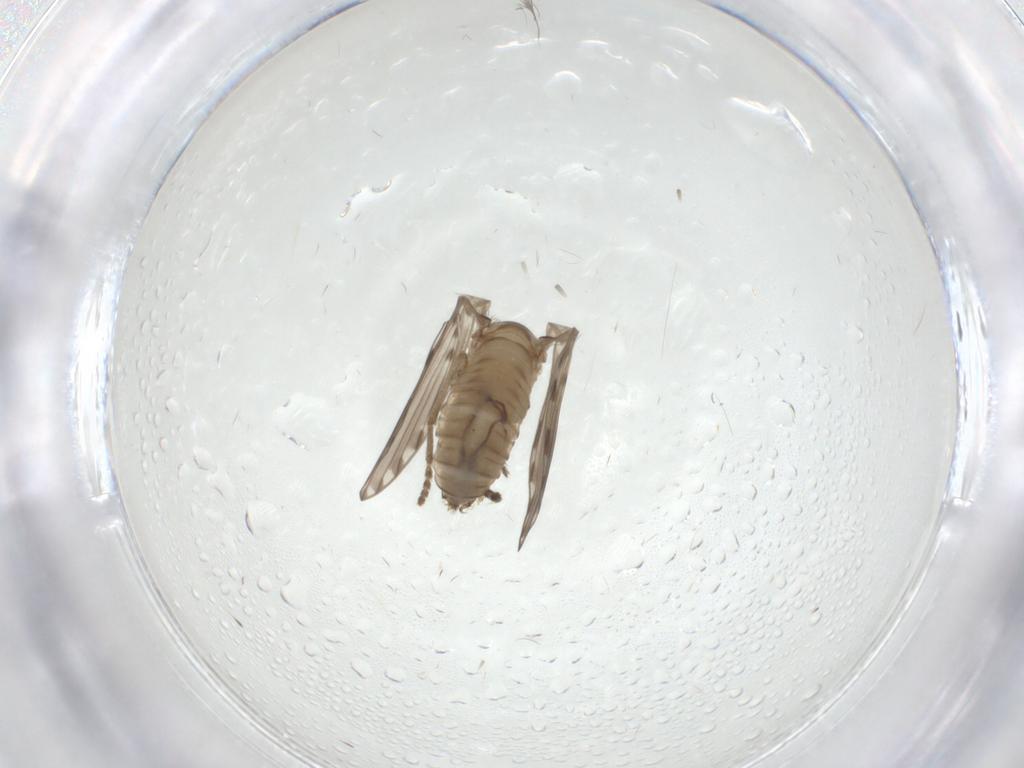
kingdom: Animalia
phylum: Arthropoda
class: Insecta
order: Diptera
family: Psychodidae
